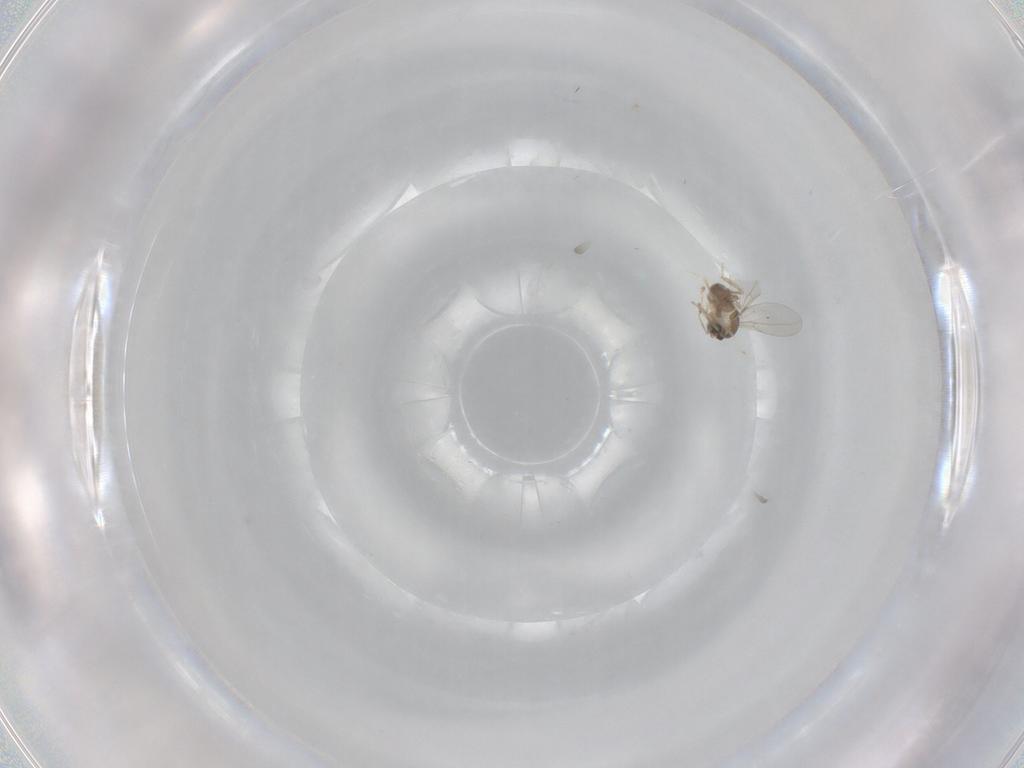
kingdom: Animalia
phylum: Arthropoda
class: Insecta
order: Diptera
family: Cecidomyiidae
